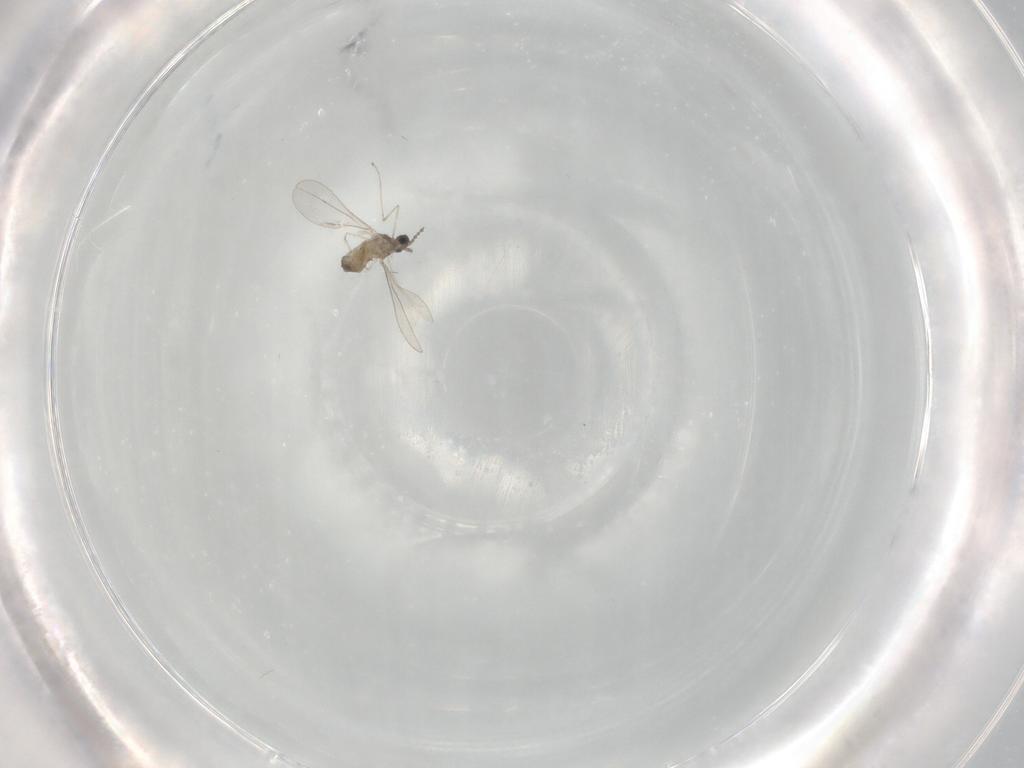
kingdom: Animalia
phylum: Arthropoda
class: Insecta
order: Diptera
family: Cecidomyiidae
